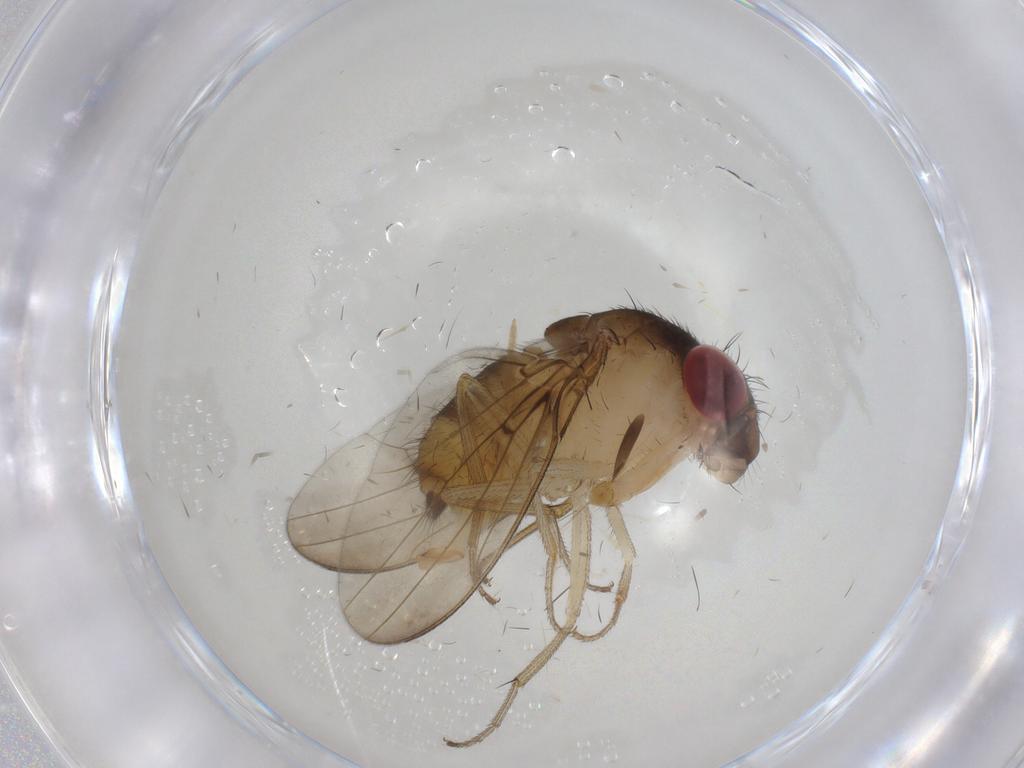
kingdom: Animalia
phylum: Arthropoda
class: Insecta
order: Diptera
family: Drosophilidae
